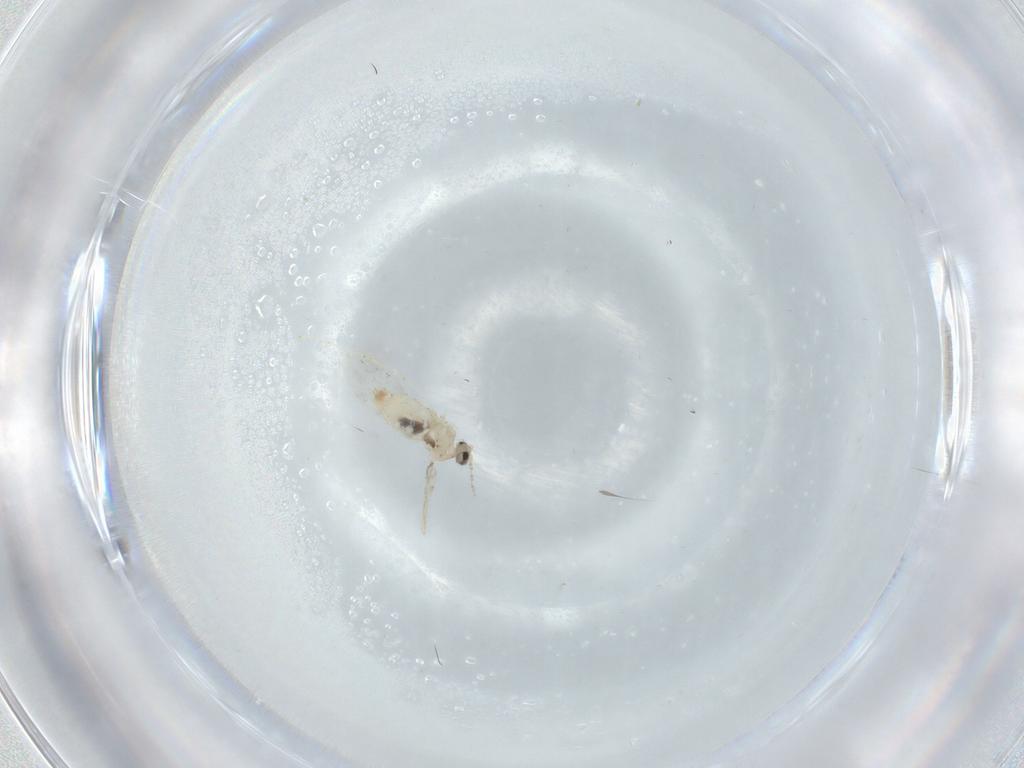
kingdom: Animalia
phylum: Arthropoda
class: Insecta
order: Diptera
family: Cecidomyiidae
